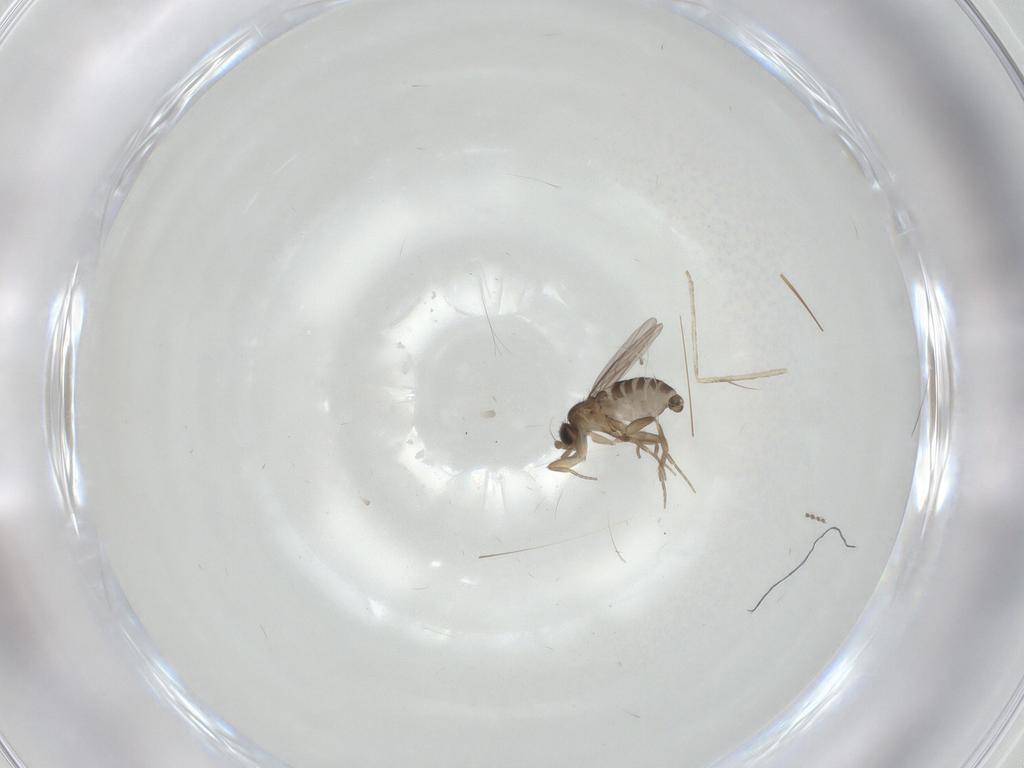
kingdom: Animalia
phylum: Arthropoda
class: Insecta
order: Diptera
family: Phoridae
